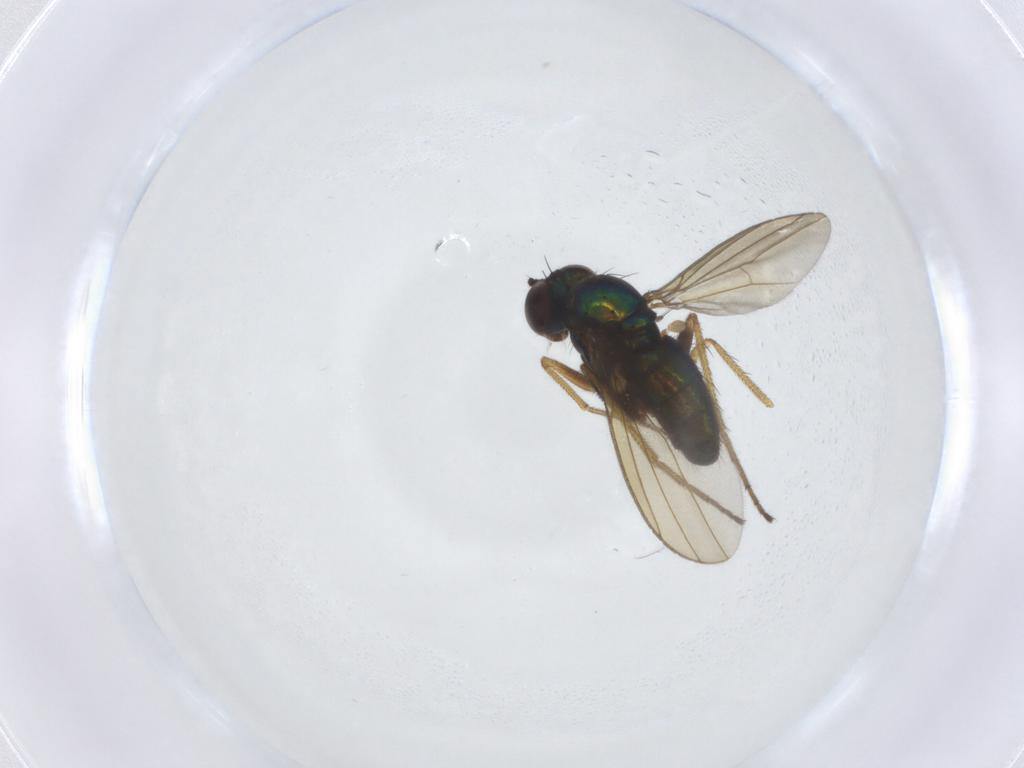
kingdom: Animalia
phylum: Arthropoda
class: Insecta
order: Diptera
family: Dolichopodidae
